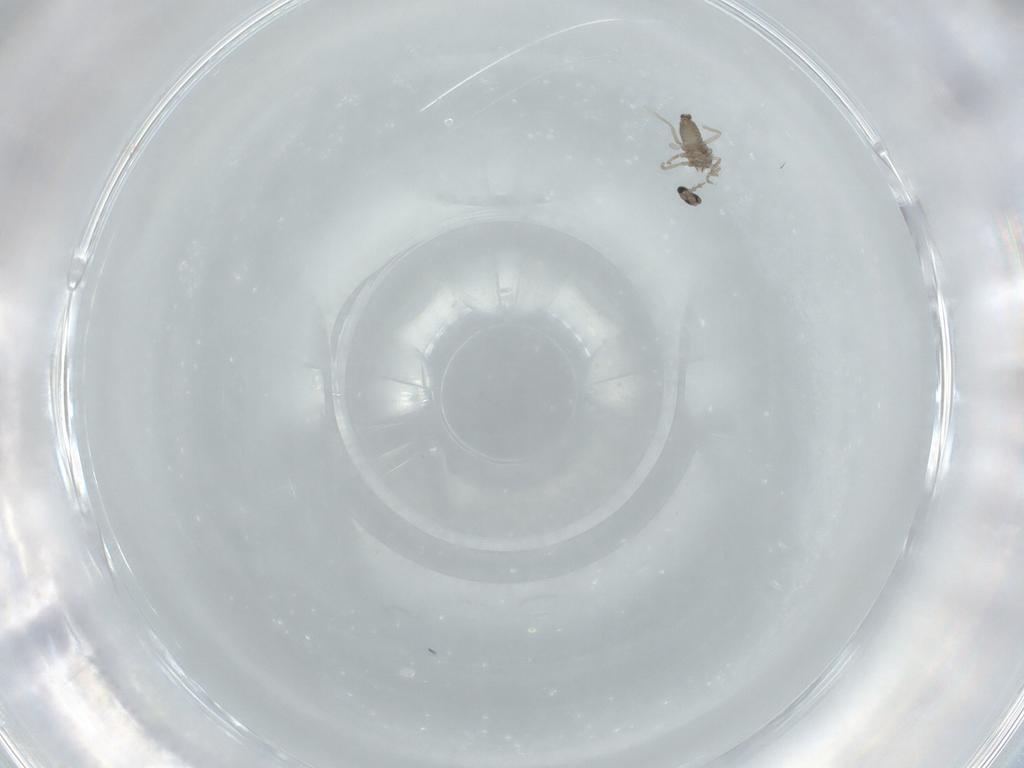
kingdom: Animalia
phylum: Arthropoda
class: Insecta
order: Diptera
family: Cecidomyiidae
